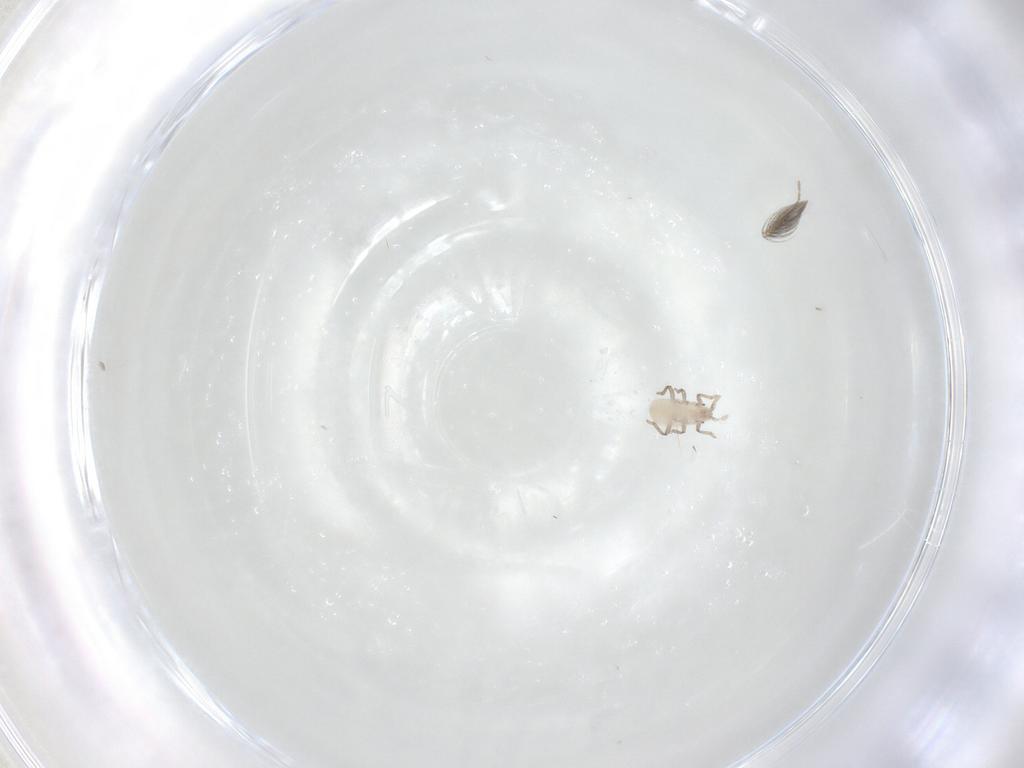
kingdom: Animalia
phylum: Arthropoda
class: Insecta
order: Hemiptera
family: Aphididae
